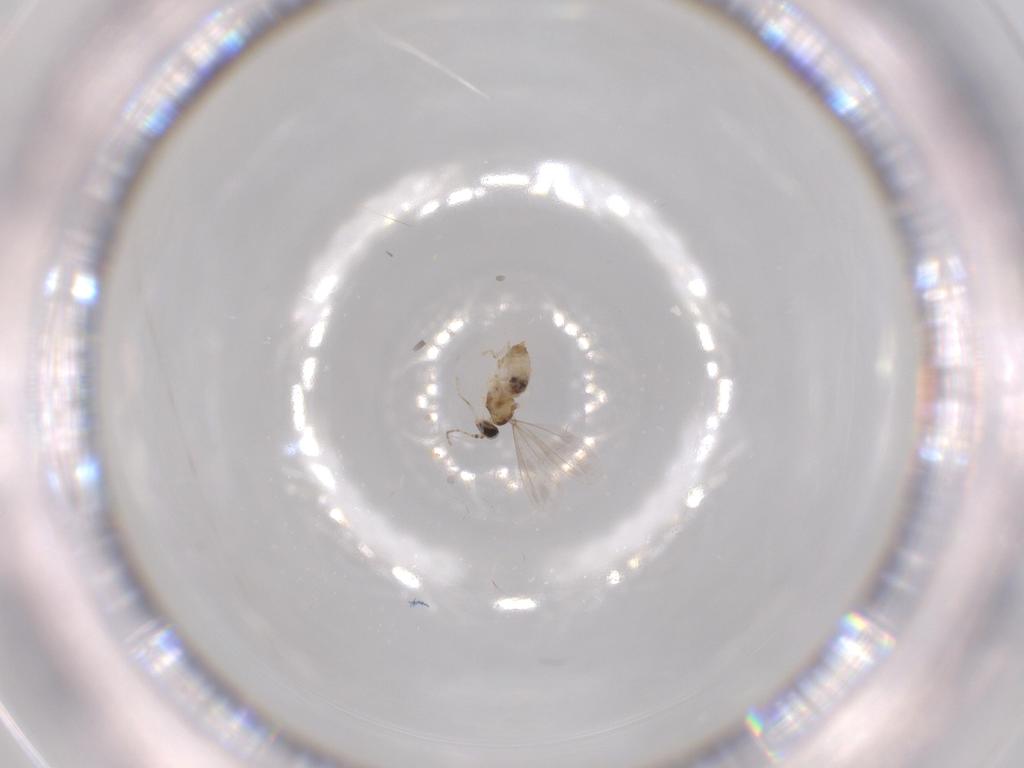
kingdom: Animalia
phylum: Arthropoda
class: Insecta
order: Diptera
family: Cecidomyiidae
